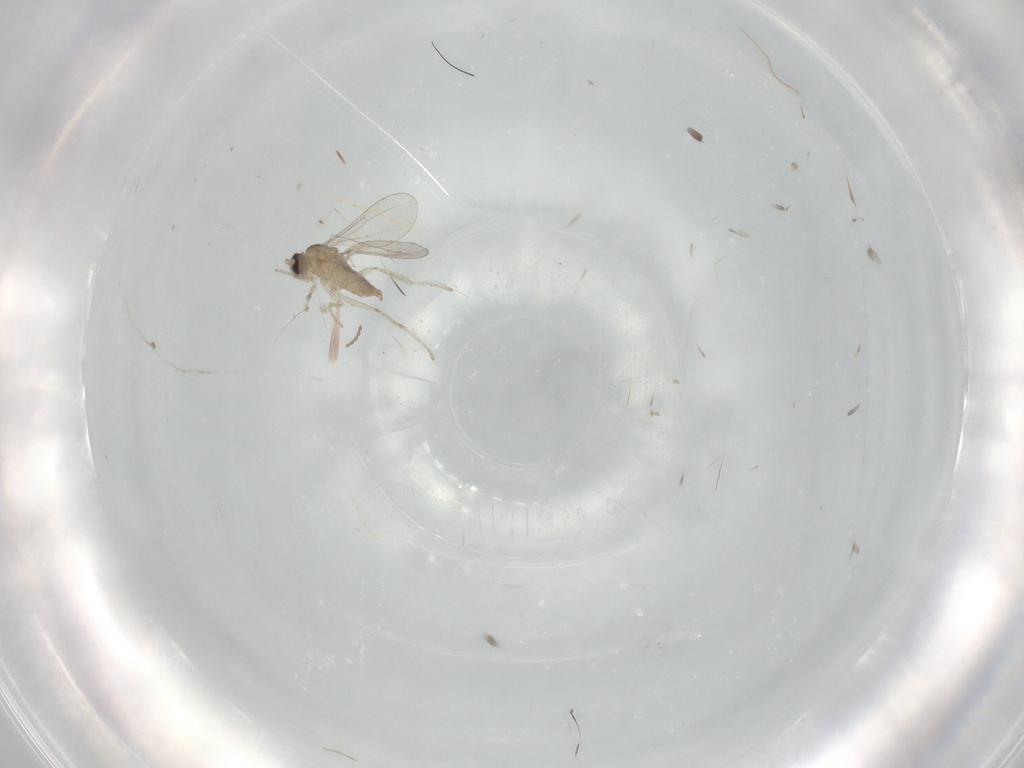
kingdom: Animalia
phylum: Arthropoda
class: Insecta
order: Diptera
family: Cecidomyiidae
